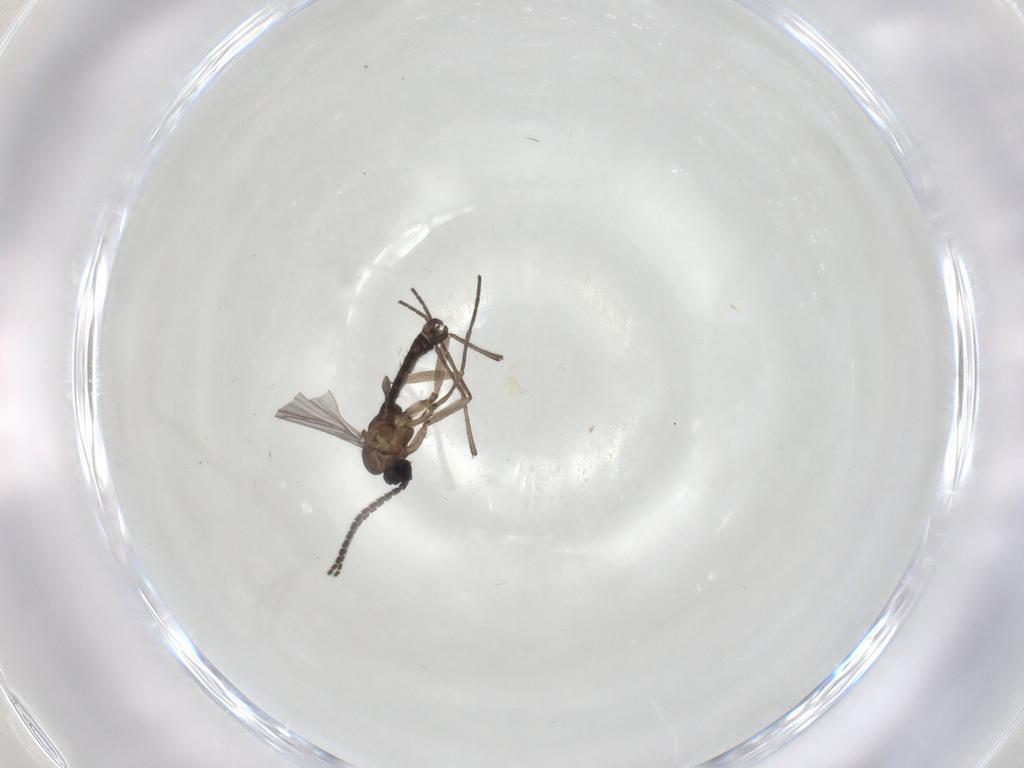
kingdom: Animalia
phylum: Arthropoda
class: Insecta
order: Diptera
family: Sciaridae
